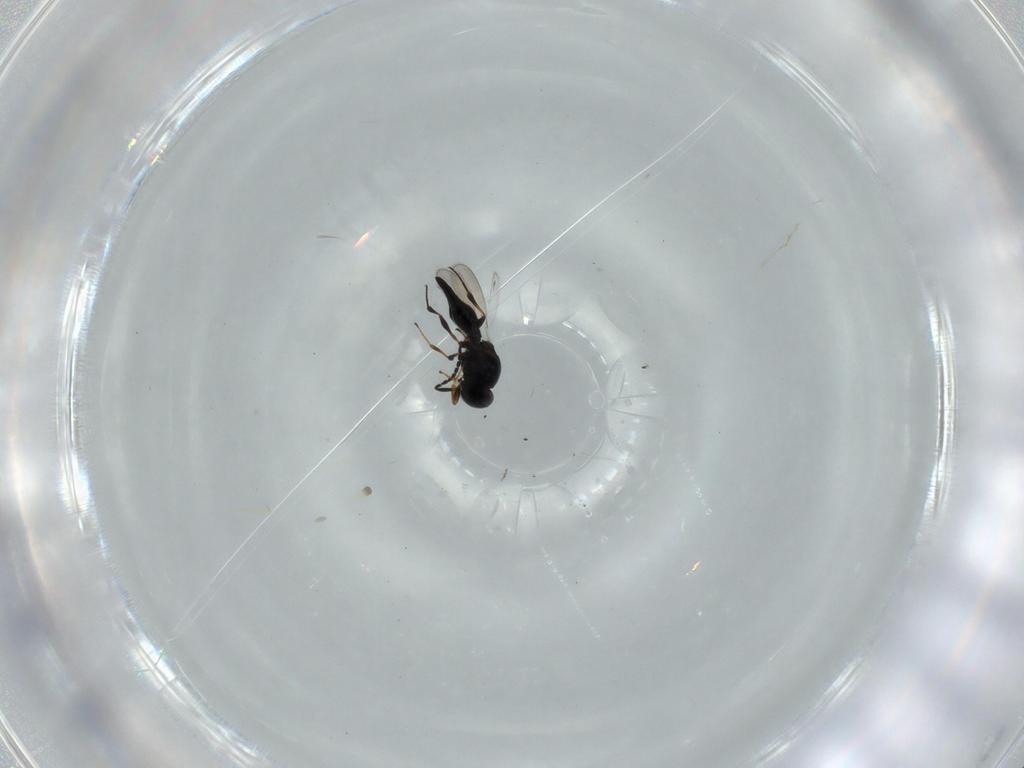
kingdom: Animalia
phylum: Arthropoda
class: Insecta
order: Hymenoptera
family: Platygastridae
